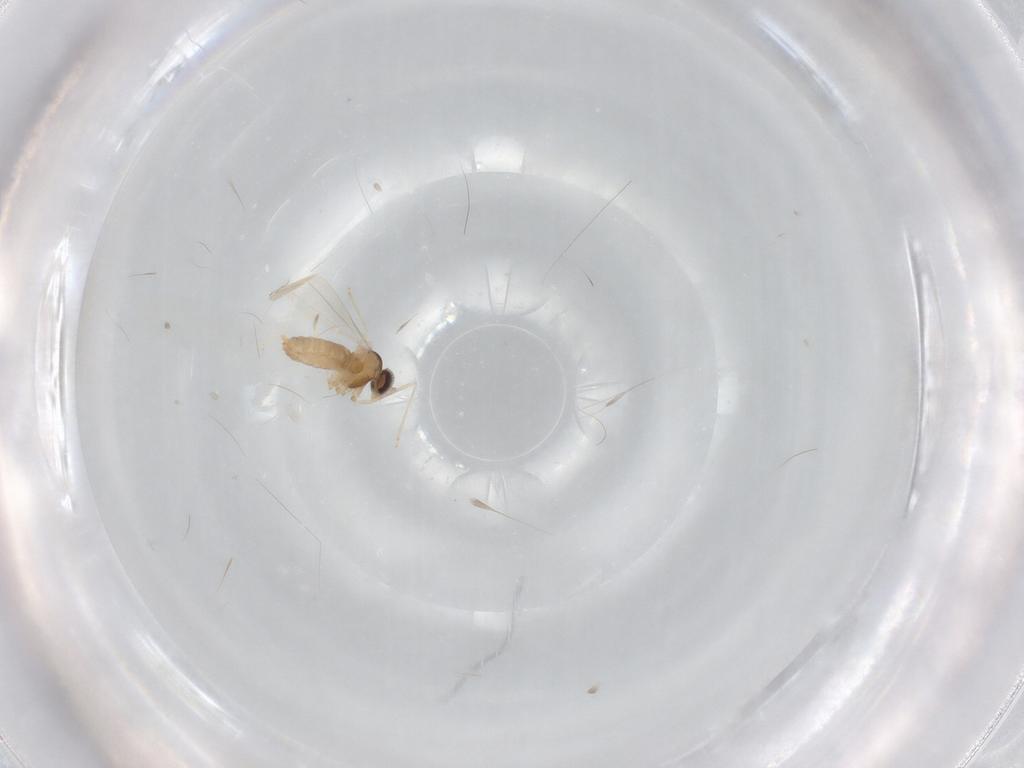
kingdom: Animalia
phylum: Arthropoda
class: Insecta
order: Diptera
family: Cecidomyiidae
